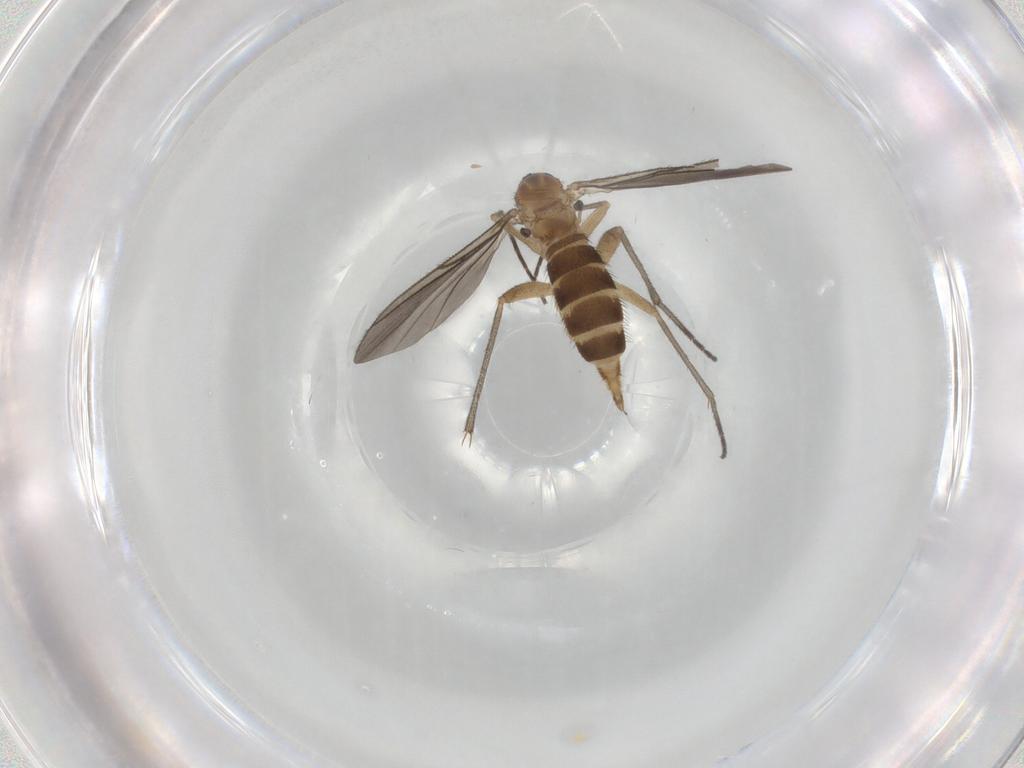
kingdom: Animalia
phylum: Arthropoda
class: Insecta
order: Diptera
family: Sciaridae
